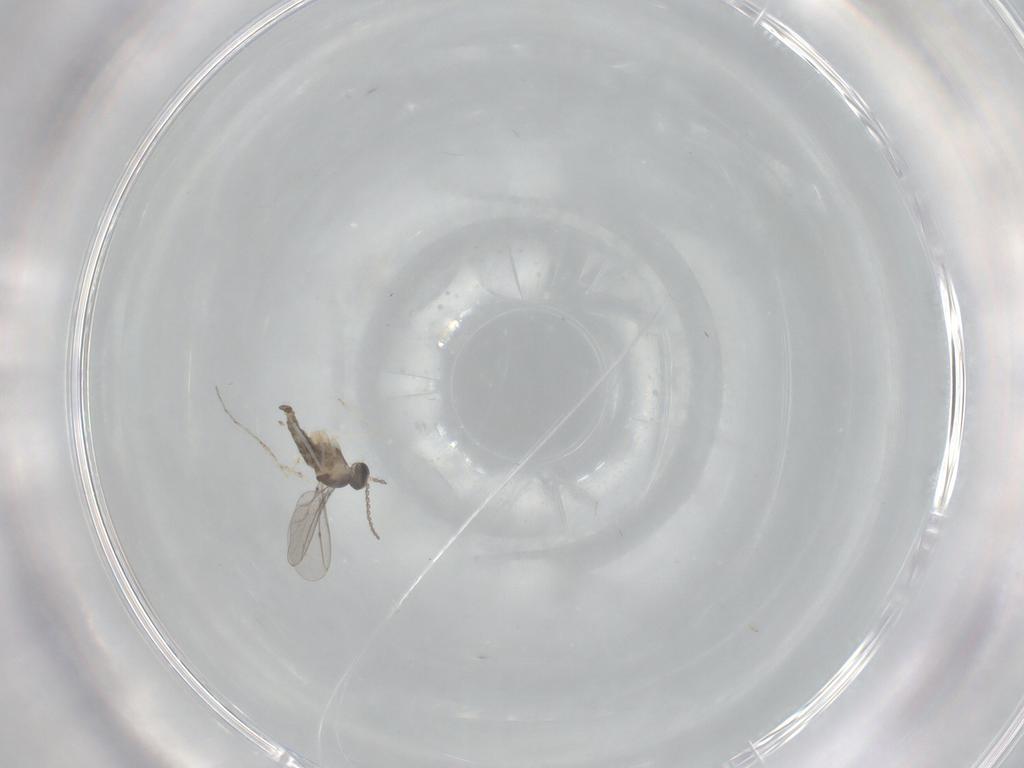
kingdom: Animalia
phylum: Arthropoda
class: Insecta
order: Diptera
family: Cecidomyiidae
